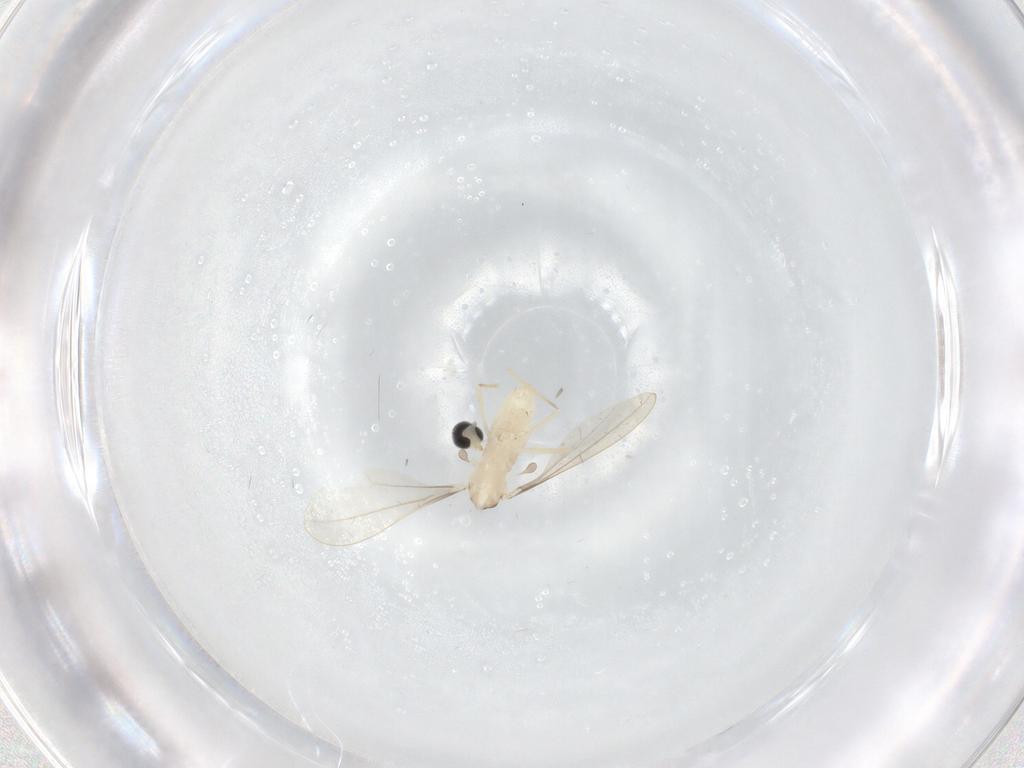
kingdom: Animalia
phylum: Arthropoda
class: Insecta
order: Diptera
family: Cecidomyiidae
